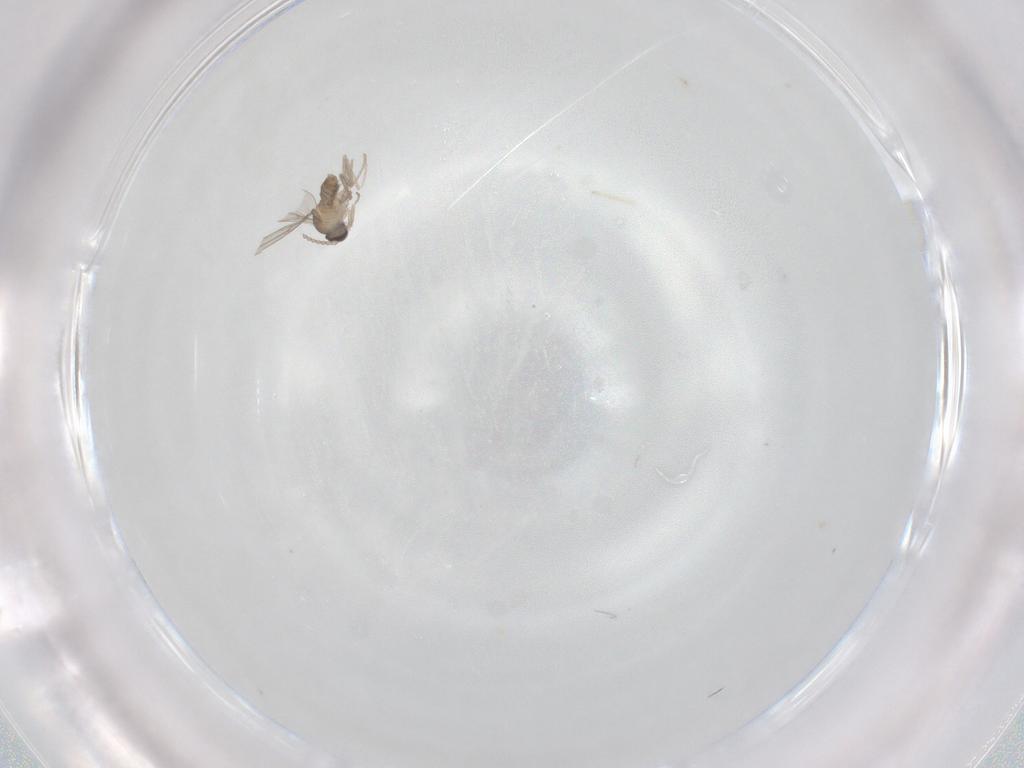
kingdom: Animalia
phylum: Arthropoda
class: Insecta
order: Diptera
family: Cecidomyiidae
